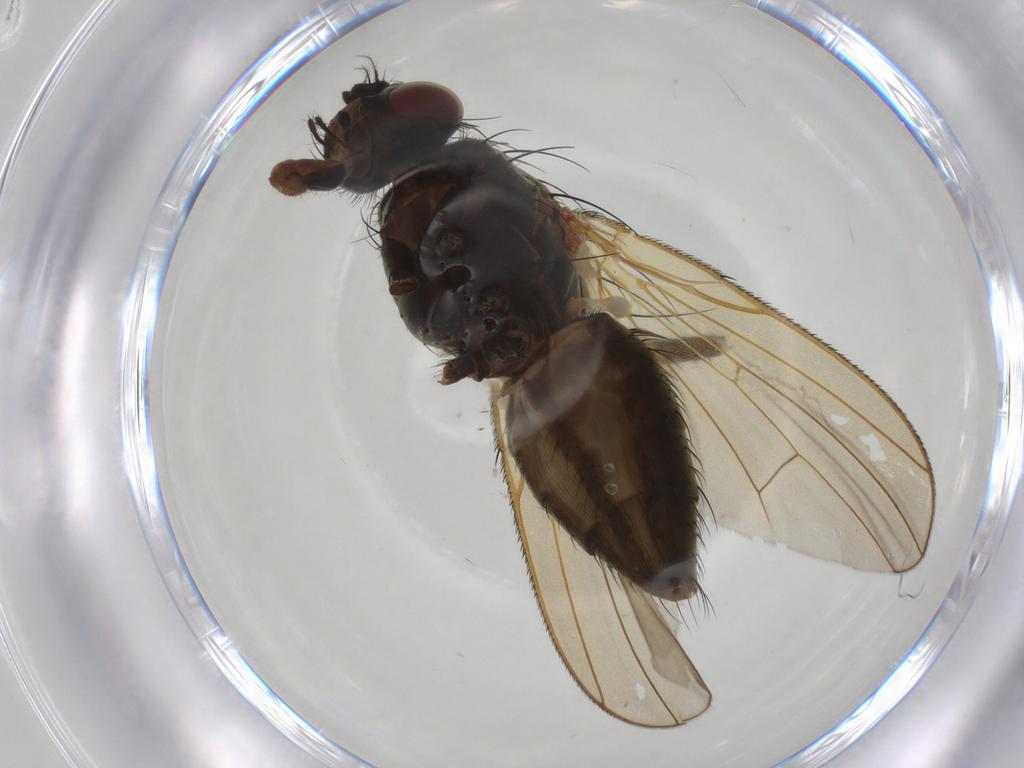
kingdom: Animalia
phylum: Arthropoda
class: Insecta
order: Diptera
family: Anthomyiidae
